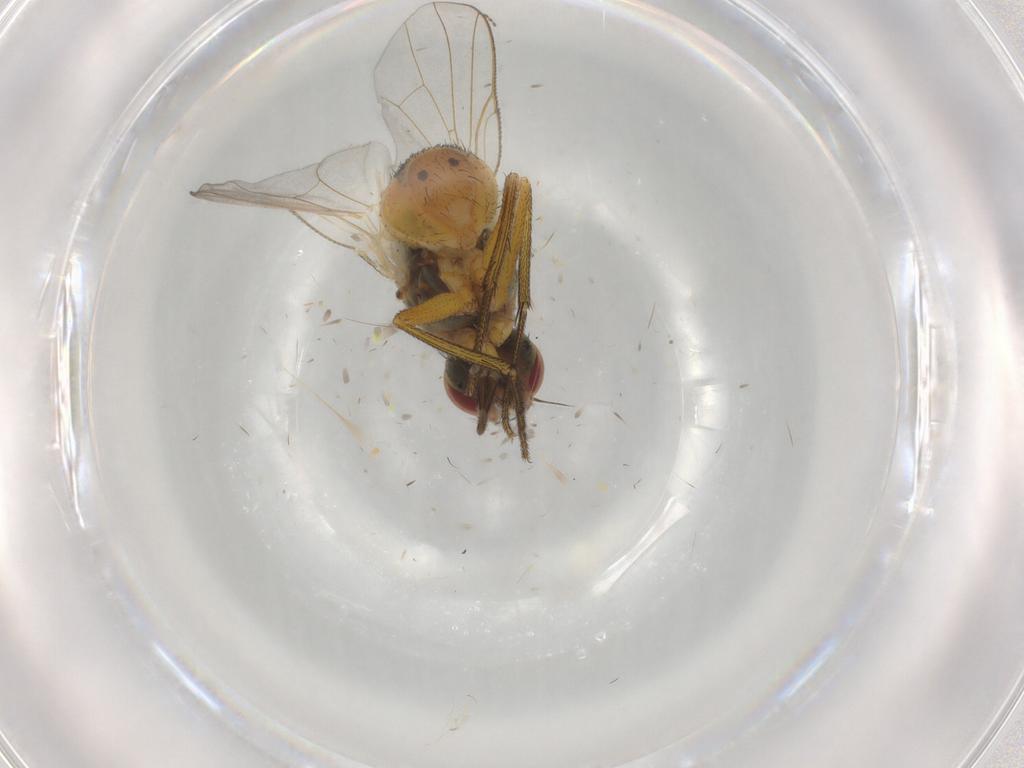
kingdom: Animalia
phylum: Arthropoda
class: Insecta
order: Diptera
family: Muscidae
